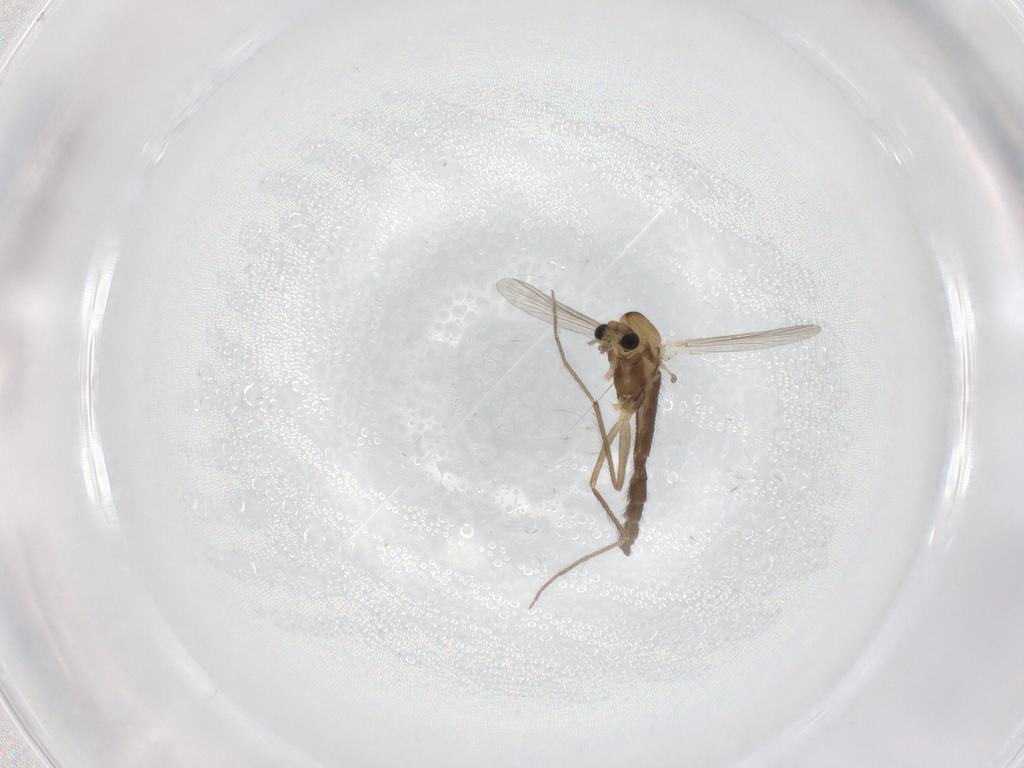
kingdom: Animalia
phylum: Arthropoda
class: Insecta
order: Diptera
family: Chironomidae
